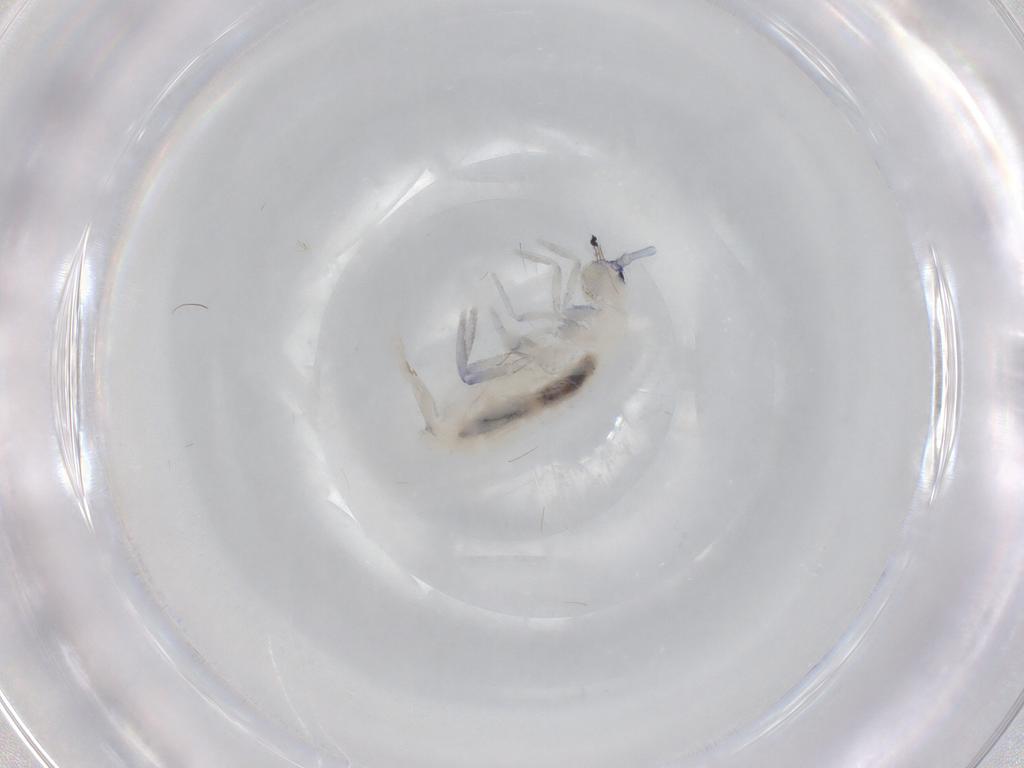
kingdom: Animalia
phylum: Arthropoda
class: Collembola
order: Entomobryomorpha
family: Tomoceridae
